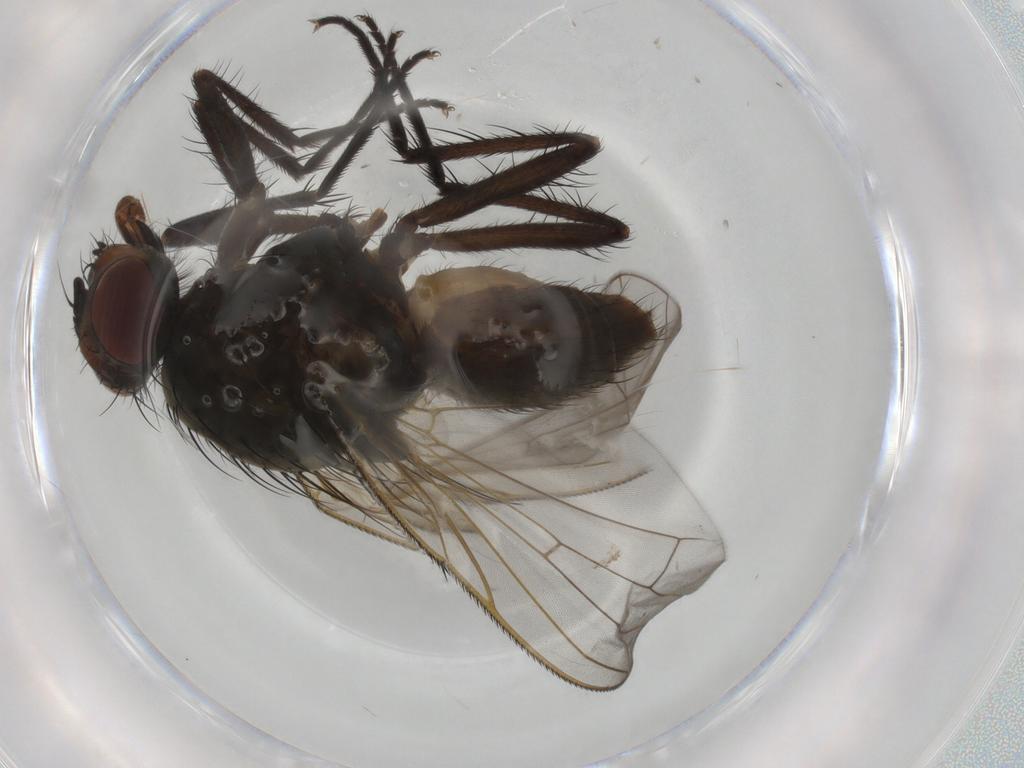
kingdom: Animalia
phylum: Arthropoda
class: Insecta
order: Diptera
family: Anthomyiidae
